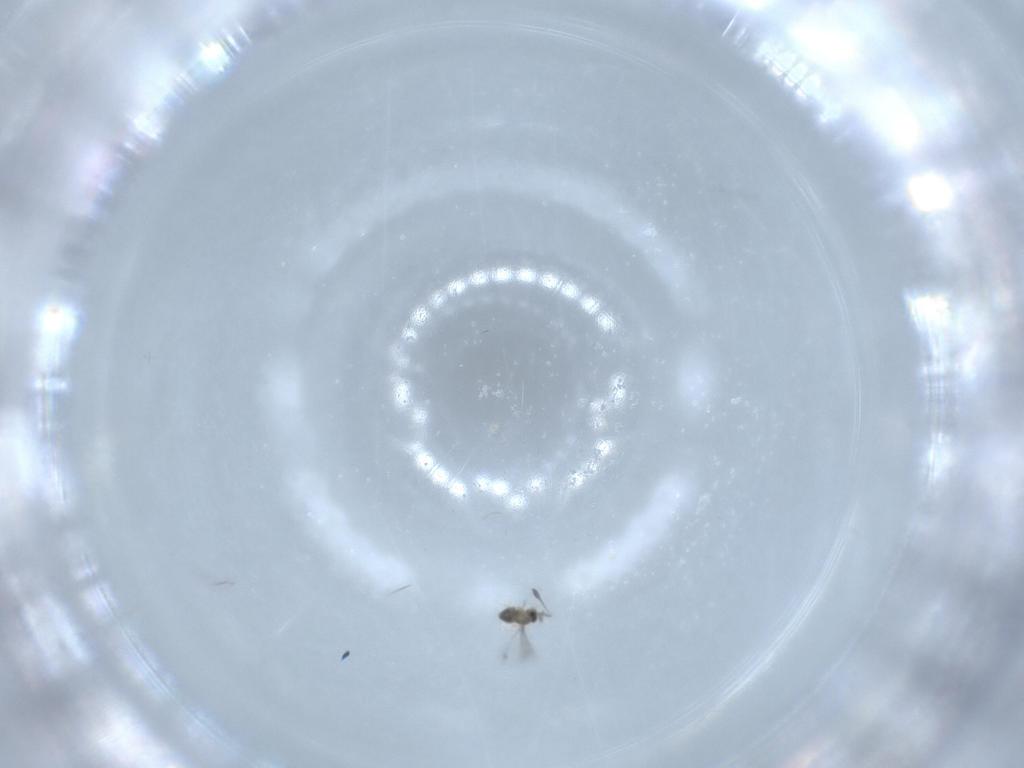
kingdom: Animalia
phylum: Arthropoda
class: Insecta
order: Hymenoptera
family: Mymaridae
